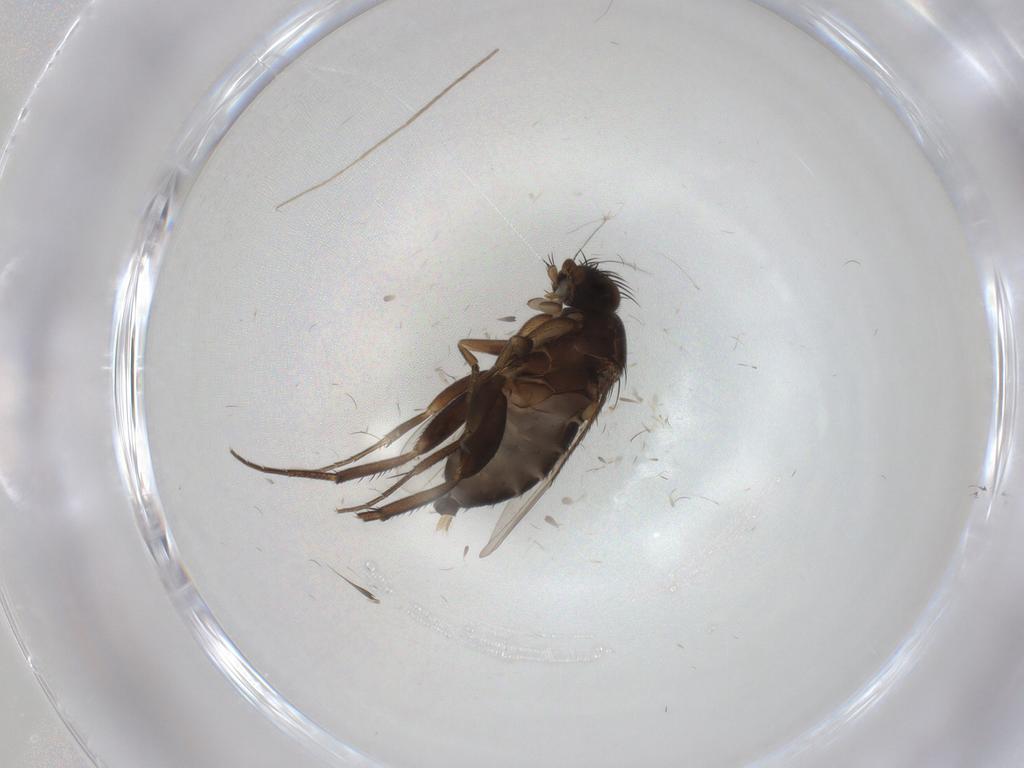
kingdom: Animalia
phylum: Arthropoda
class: Insecta
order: Diptera
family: Phoridae
